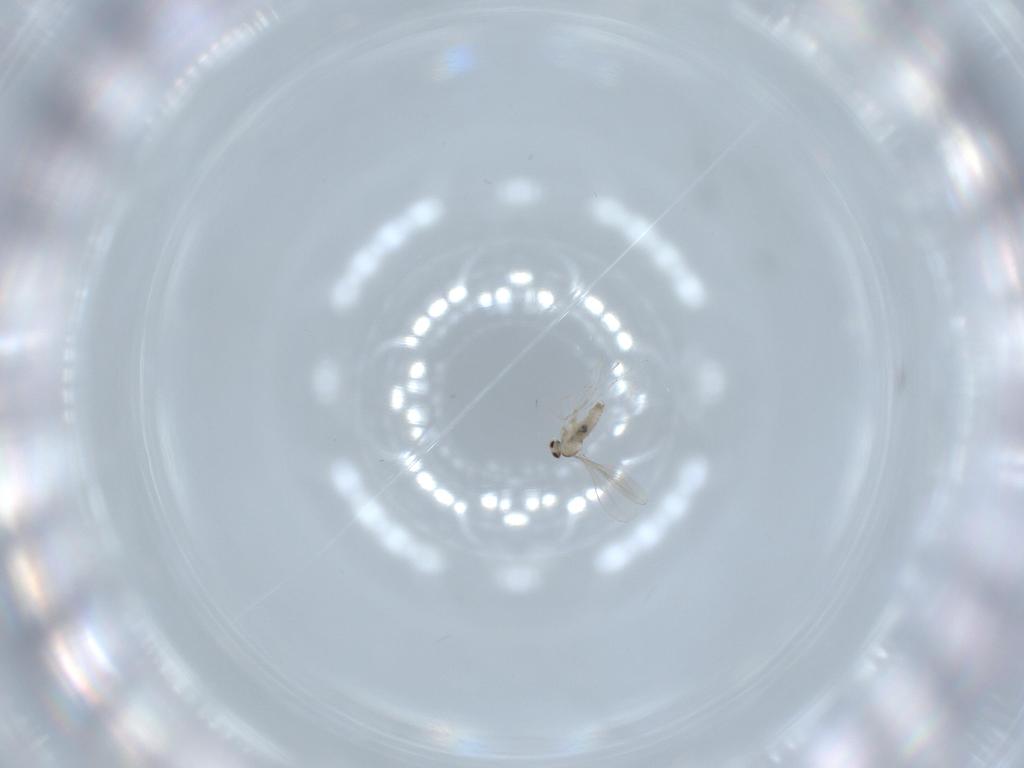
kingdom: Animalia
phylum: Arthropoda
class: Insecta
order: Diptera
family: Cecidomyiidae
